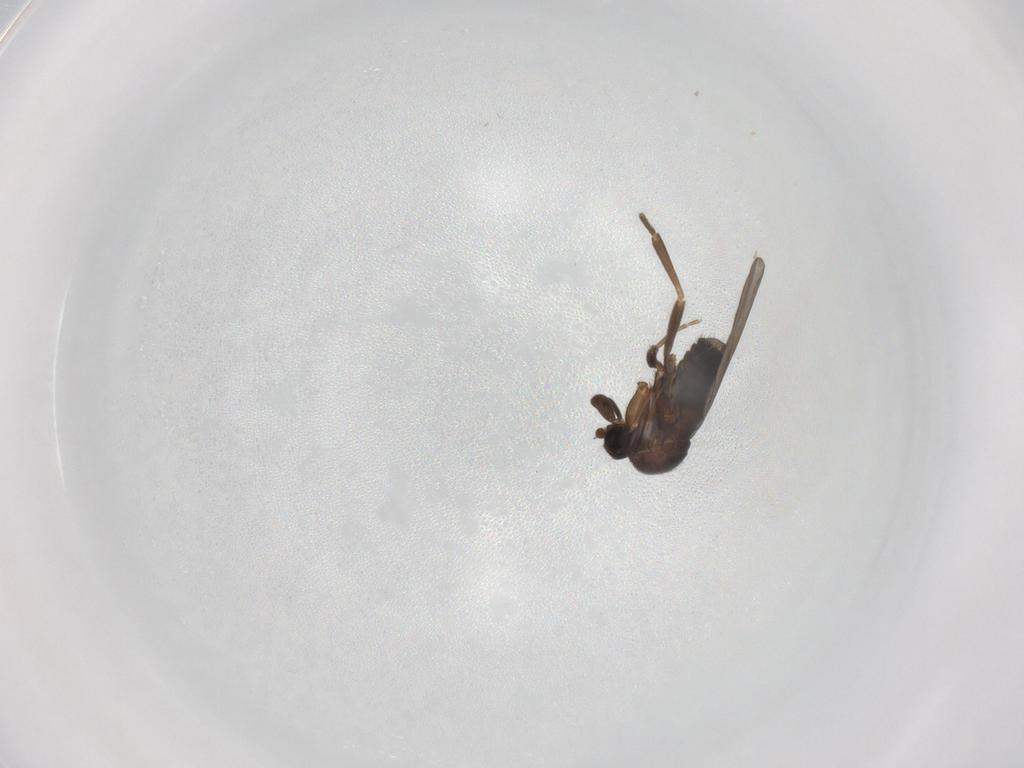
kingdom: Animalia
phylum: Arthropoda
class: Insecta
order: Diptera
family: Phoridae
